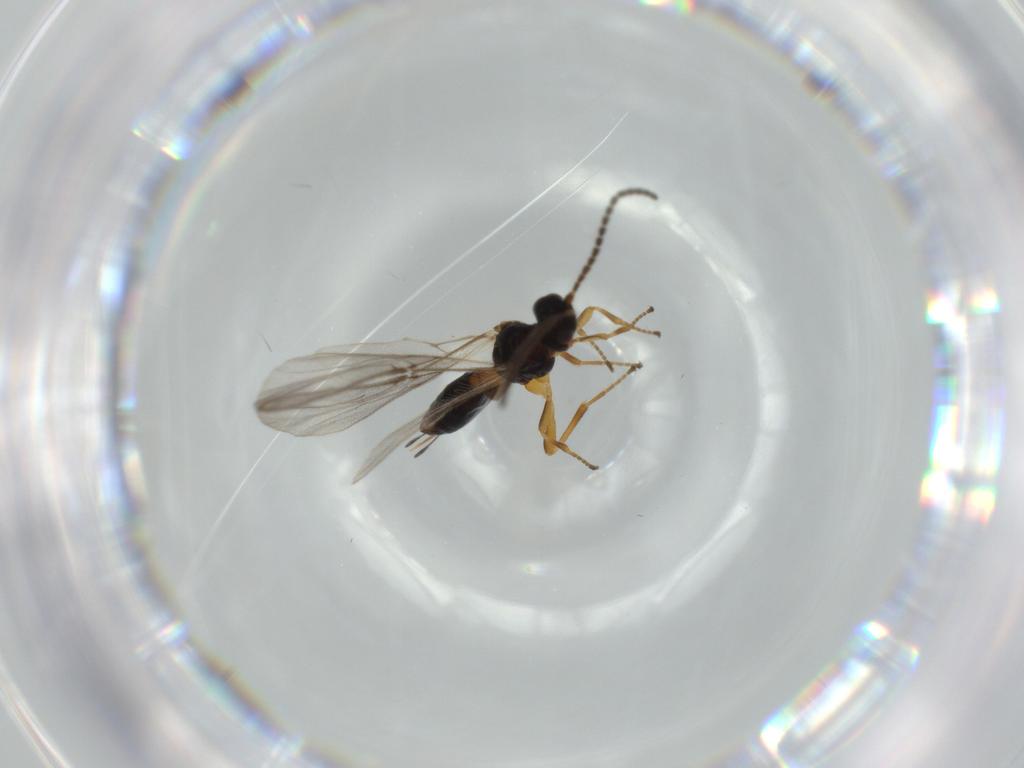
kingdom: Animalia
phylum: Arthropoda
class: Insecta
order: Hymenoptera
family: Braconidae
